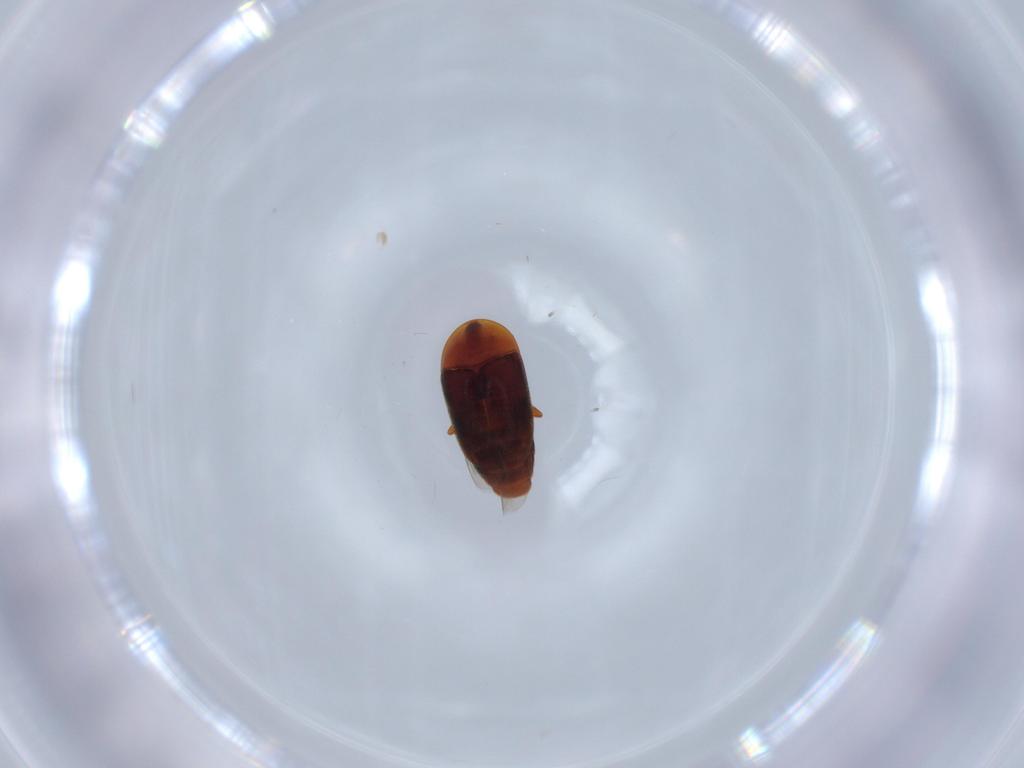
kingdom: Animalia
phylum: Arthropoda
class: Insecta
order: Coleoptera
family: Corylophidae
